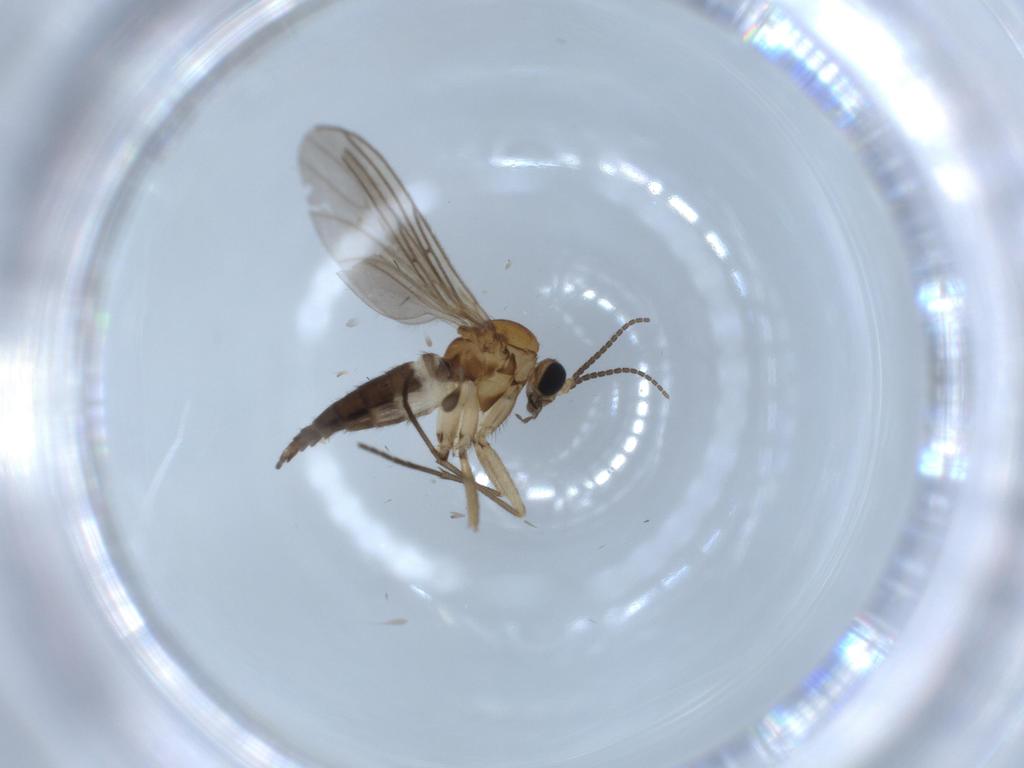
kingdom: Animalia
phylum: Arthropoda
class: Insecta
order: Diptera
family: Sciaridae
